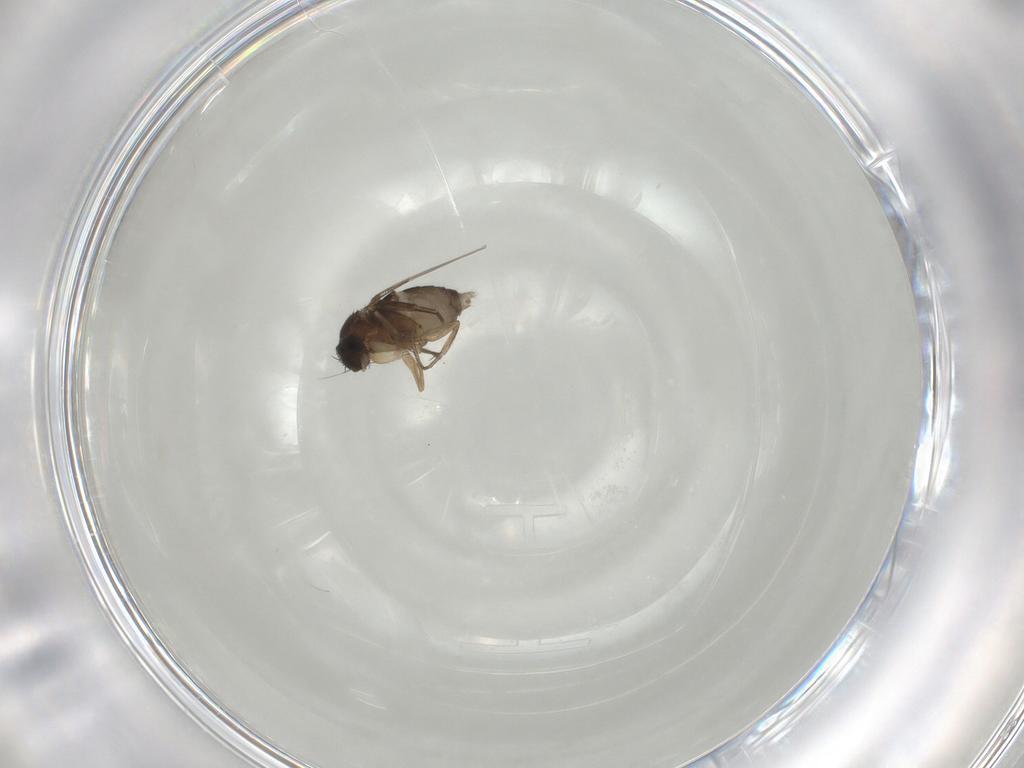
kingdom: Animalia
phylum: Arthropoda
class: Insecta
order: Diptera
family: Phoridae
